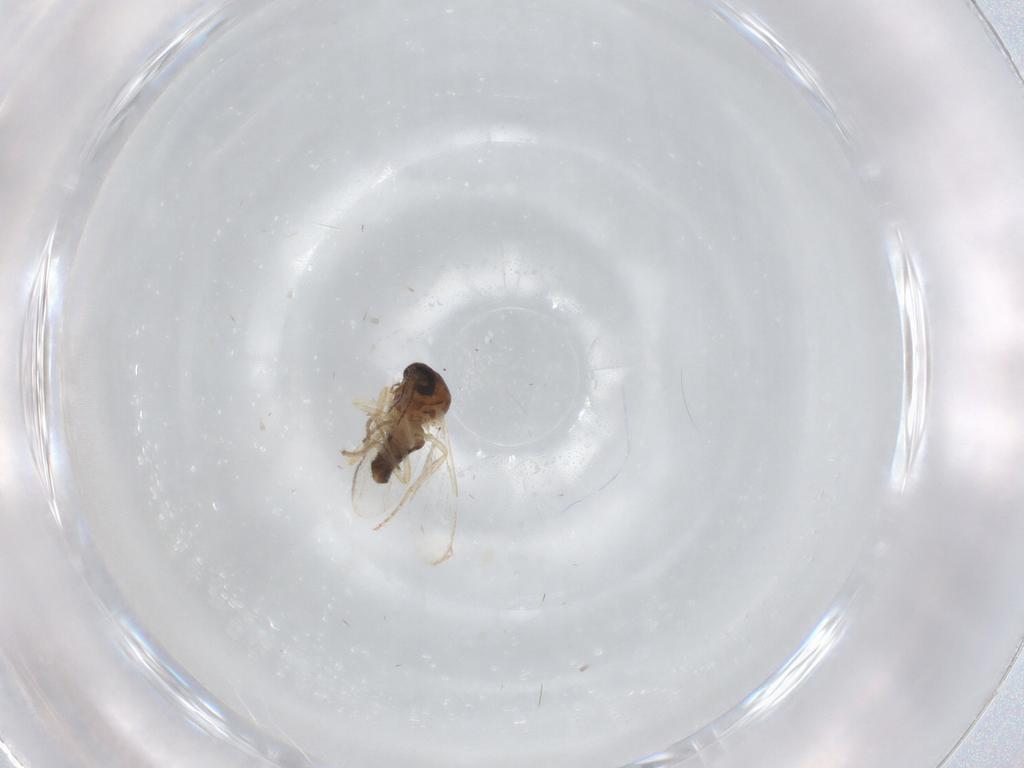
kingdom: Animalia
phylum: Arthropoda
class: Insecta
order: Diptera
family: Ceratopogonidae
